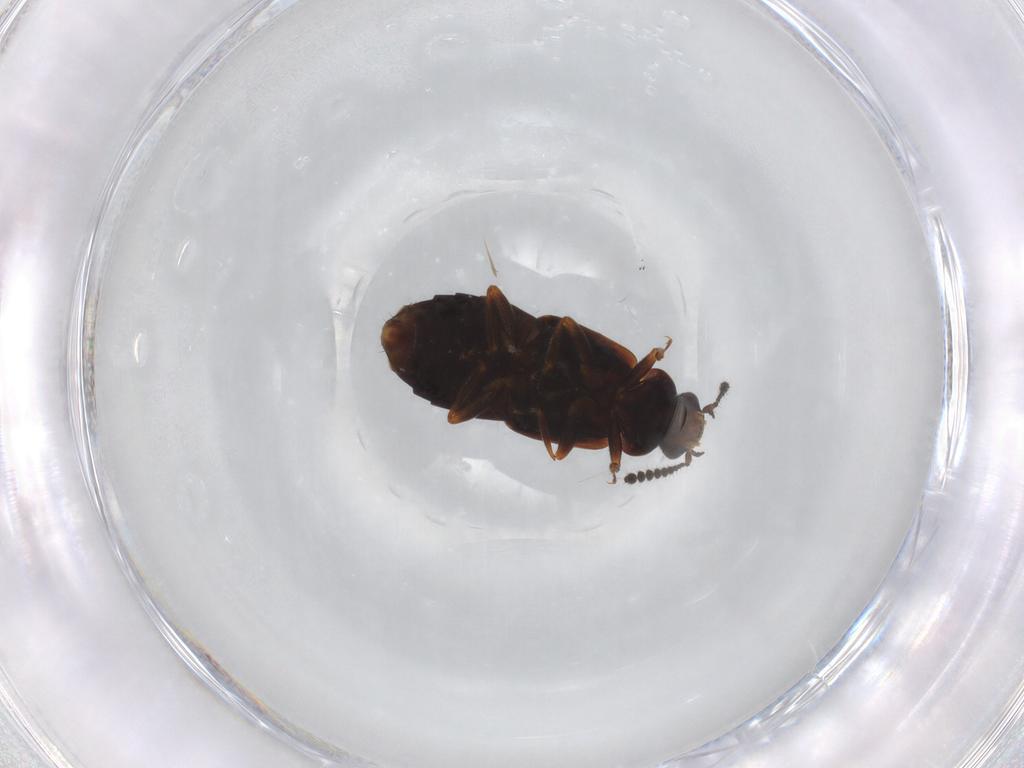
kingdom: Animalia
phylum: Arthropoda
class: Insecta
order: Coleoptera
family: Staphylinidae
